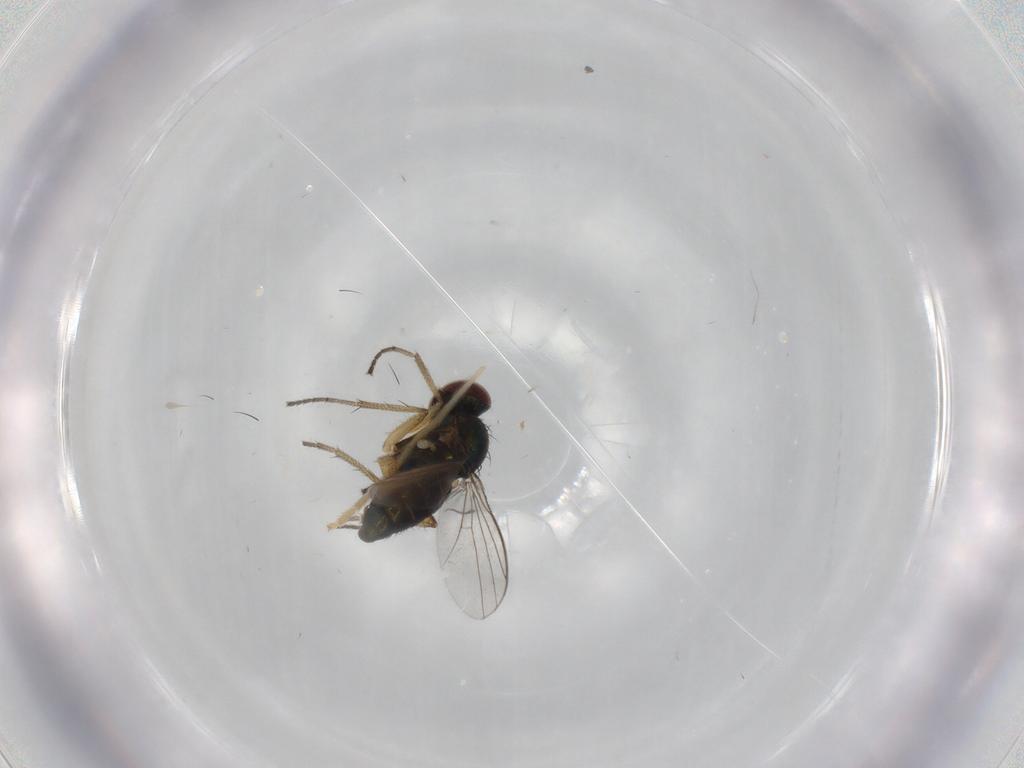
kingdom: Animalia
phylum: Arthropoda
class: Insecta
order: Diptera
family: Chironomidae
